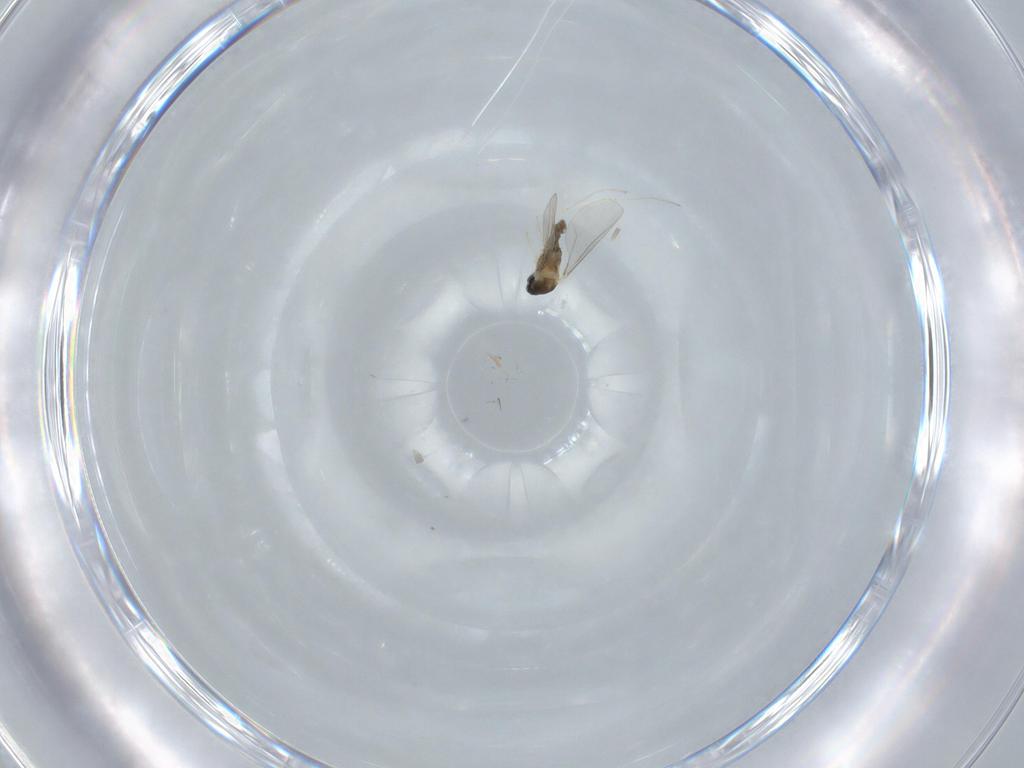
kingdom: Animalia
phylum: Arthropoda
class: Insecta
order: Diptera
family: Cecidomyiidae
